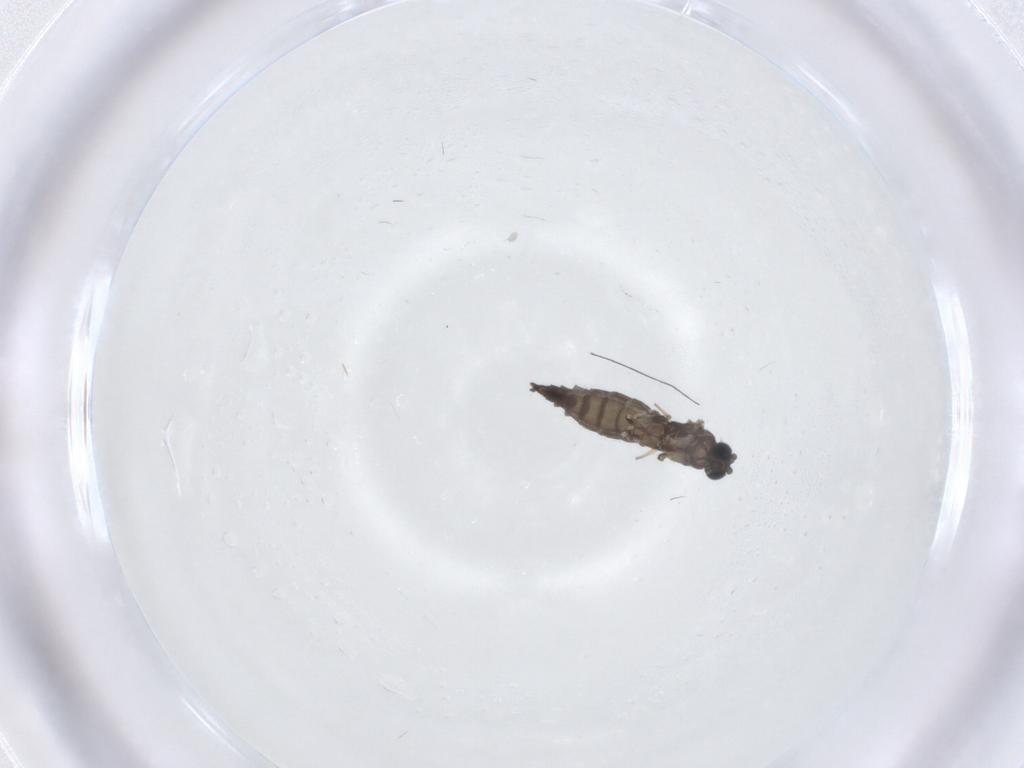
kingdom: Animalia
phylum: Arthropoda
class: Insecta
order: Diptera
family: Sciaridae
